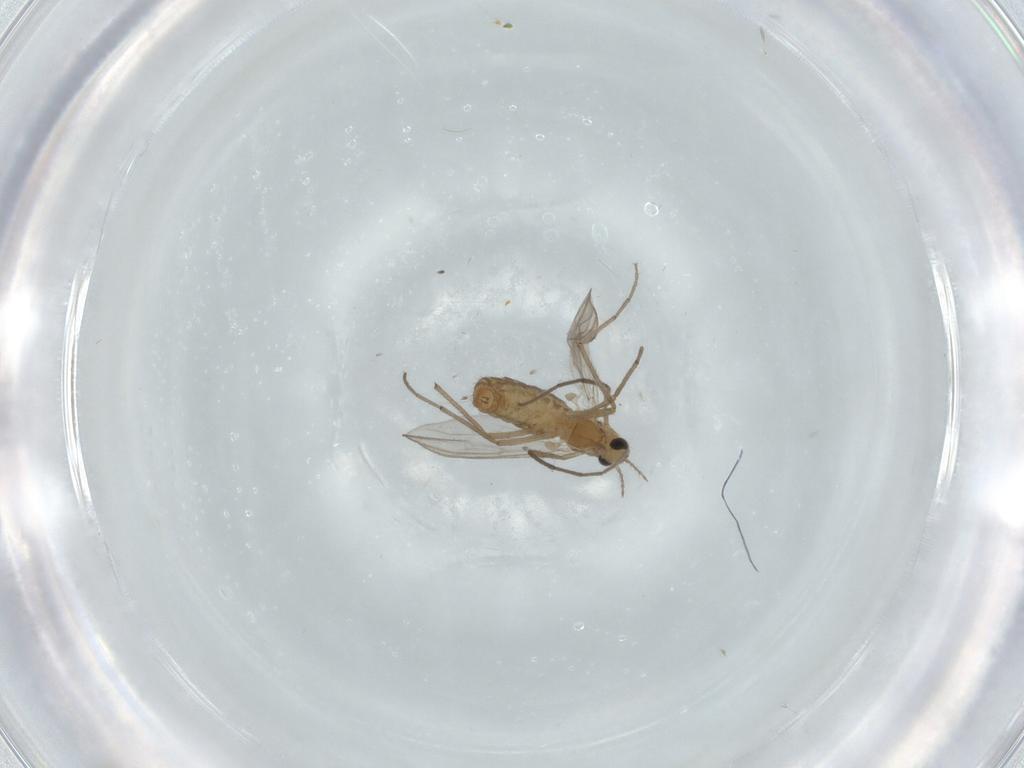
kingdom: Animalia
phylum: Arthropoda
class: Insecta
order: Diptera
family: Chironomidae
